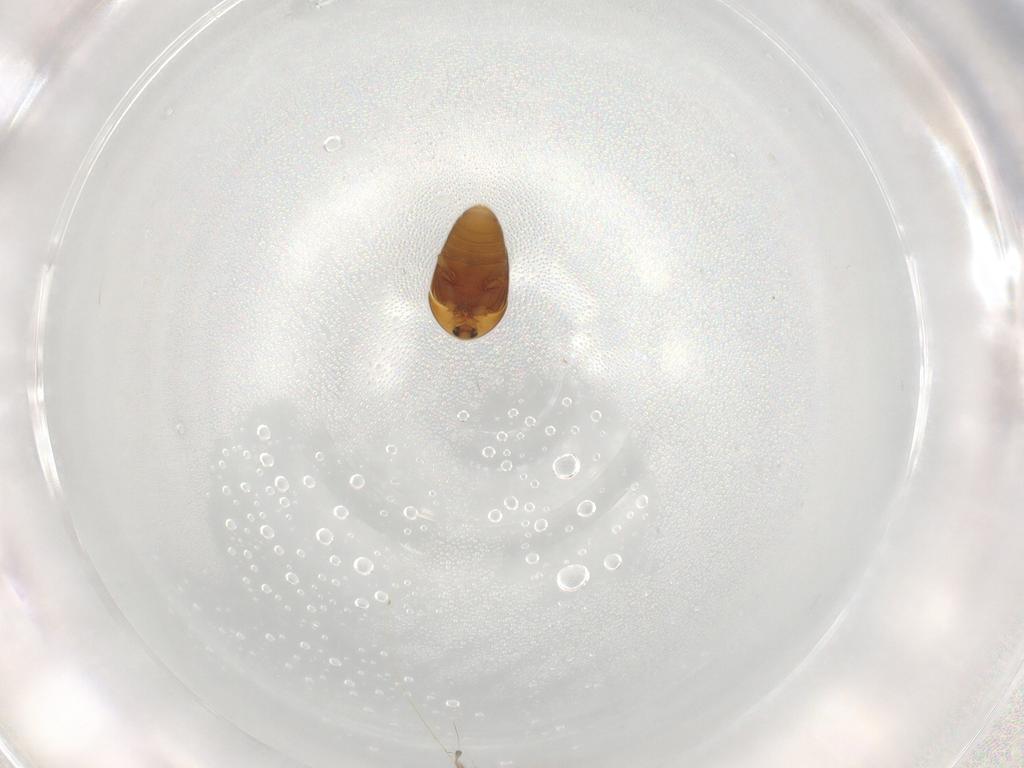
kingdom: Animalia
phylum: Arthropoda
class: Insecta
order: Coleoptera
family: Corylophidae
